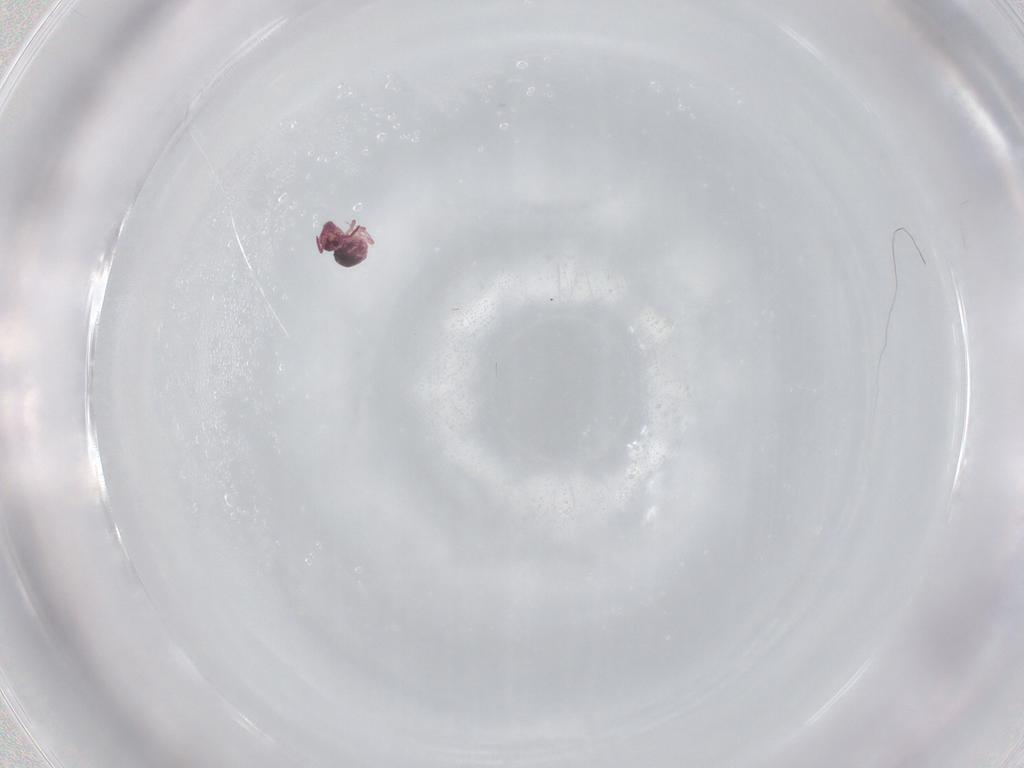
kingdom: Animalia
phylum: Arthropoda
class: Collembola
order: Symphypleona
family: Sminthurididae
